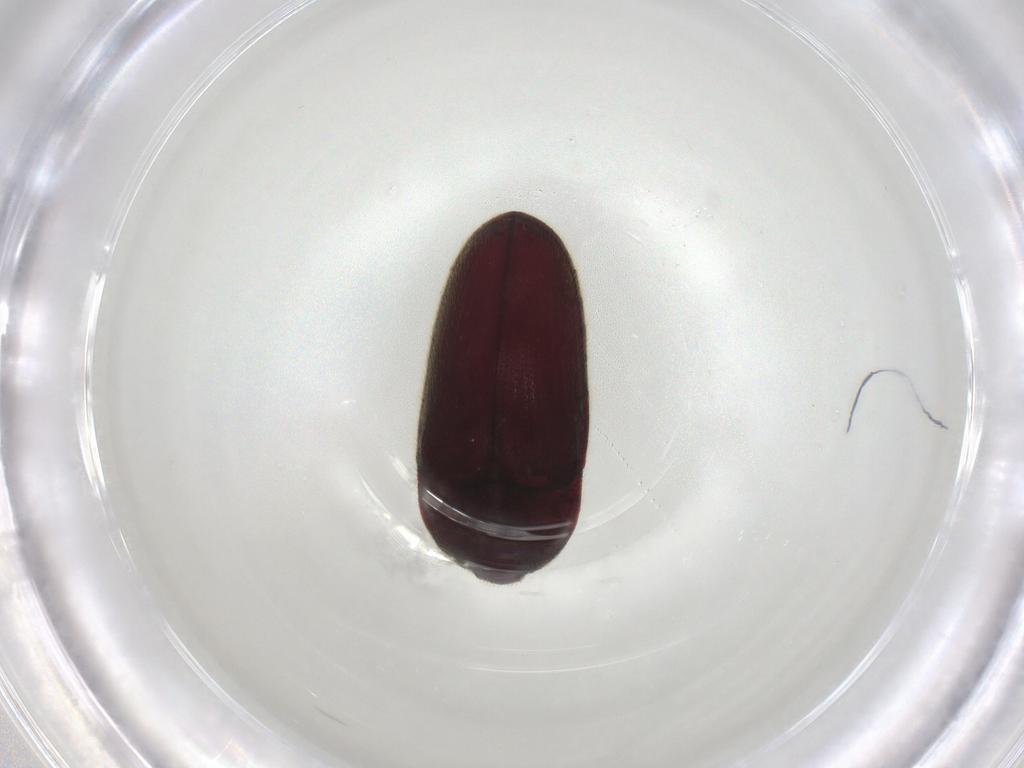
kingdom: Animalia
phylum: Arthropoda
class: Insecta
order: Coleoptera
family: Throscidae
